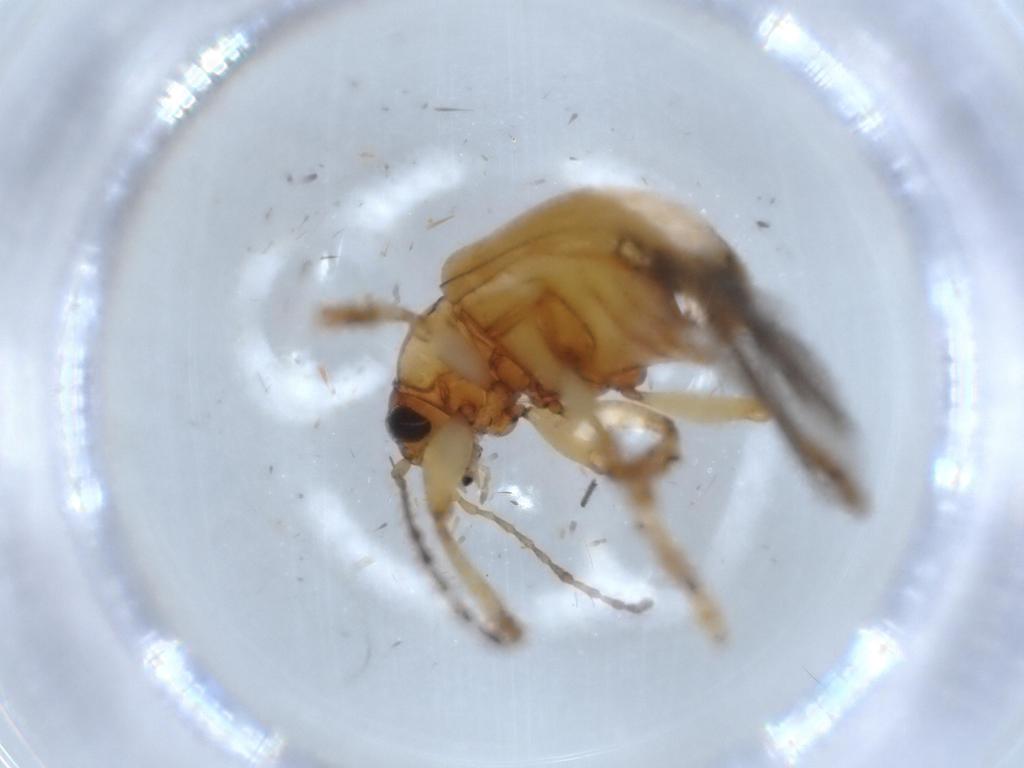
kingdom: Animalia
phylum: Arthropoda
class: Insecta
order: Coleoptera
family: Chrysomelidae
